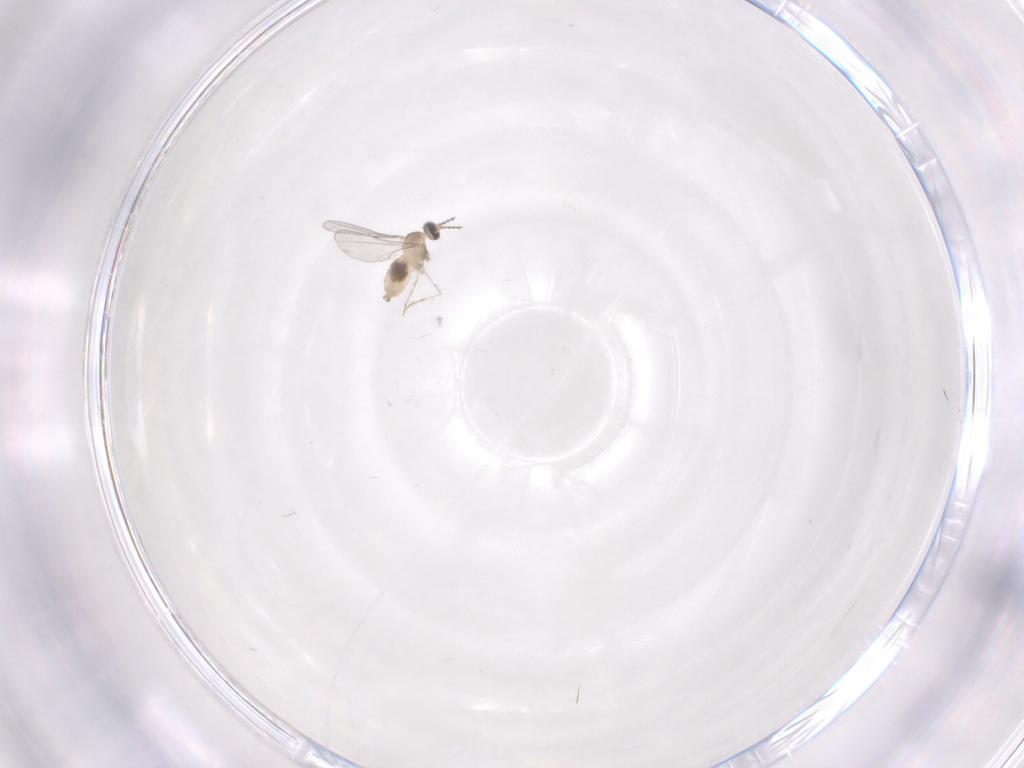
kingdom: Animalia
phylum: Arthropoda
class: Insecta
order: Diptera
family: Cecidomyiidae
